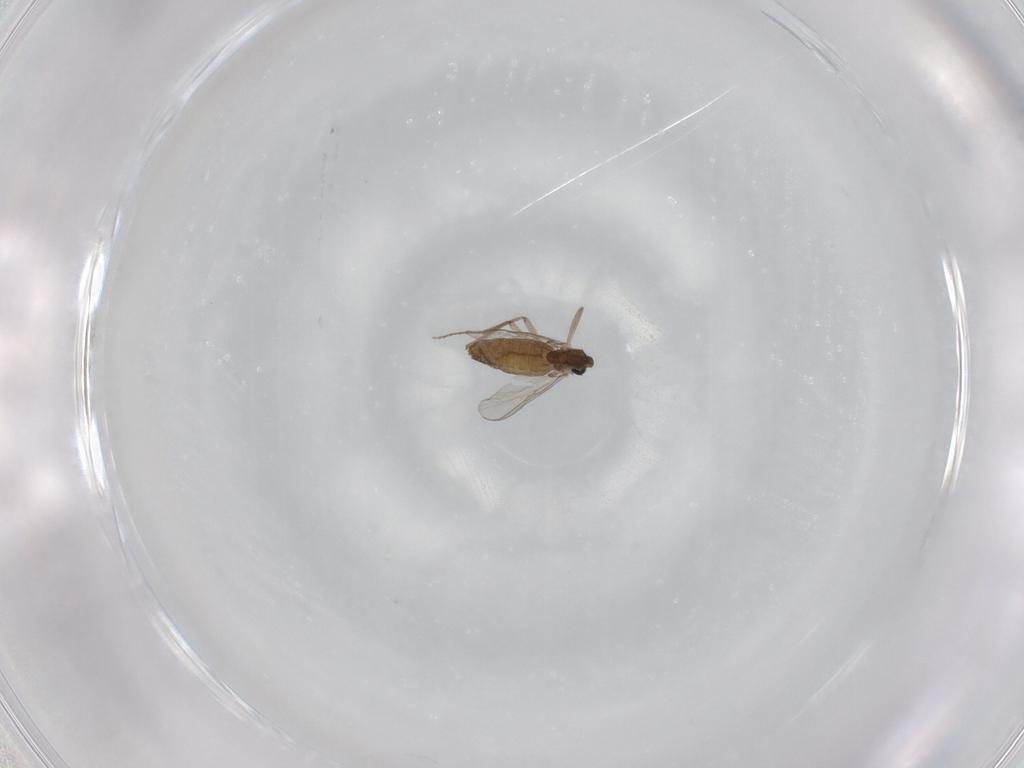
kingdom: Animalia
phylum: Arthropoda
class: Insecta
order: Diptera
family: Chironomidae
